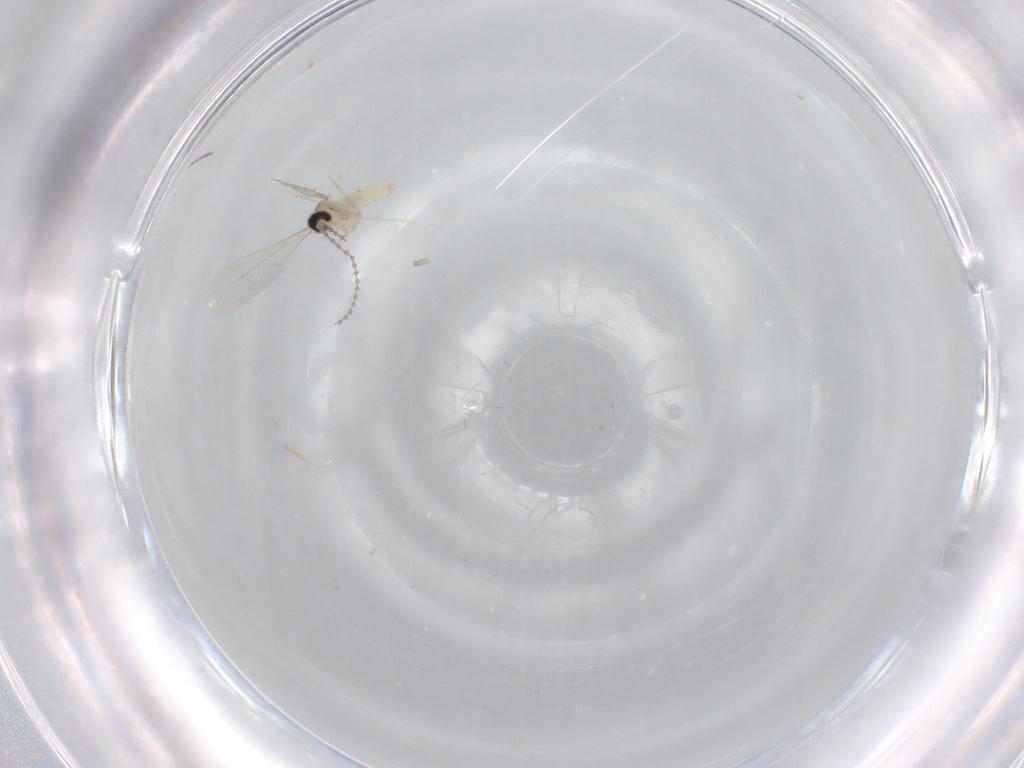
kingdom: Animalia
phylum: Arthropoda
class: Insecta
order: Diptera
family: Cecidomyiidae
